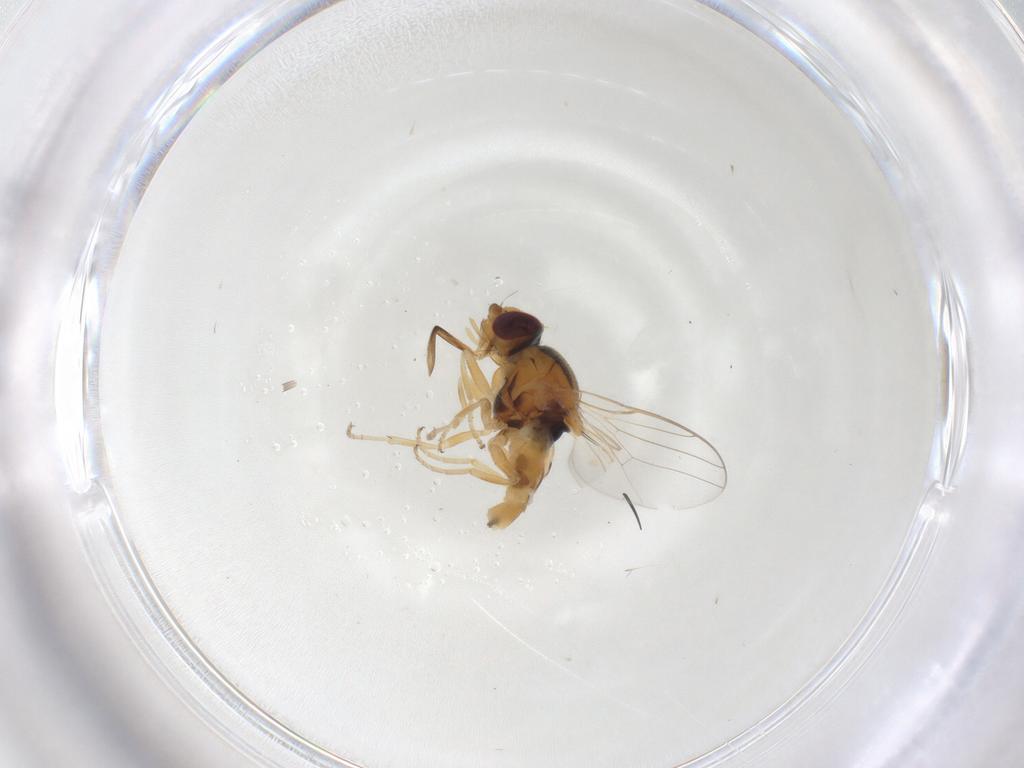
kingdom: Animalia
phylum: Arthropoda
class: Insecta
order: Diptera
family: Chloropidae
